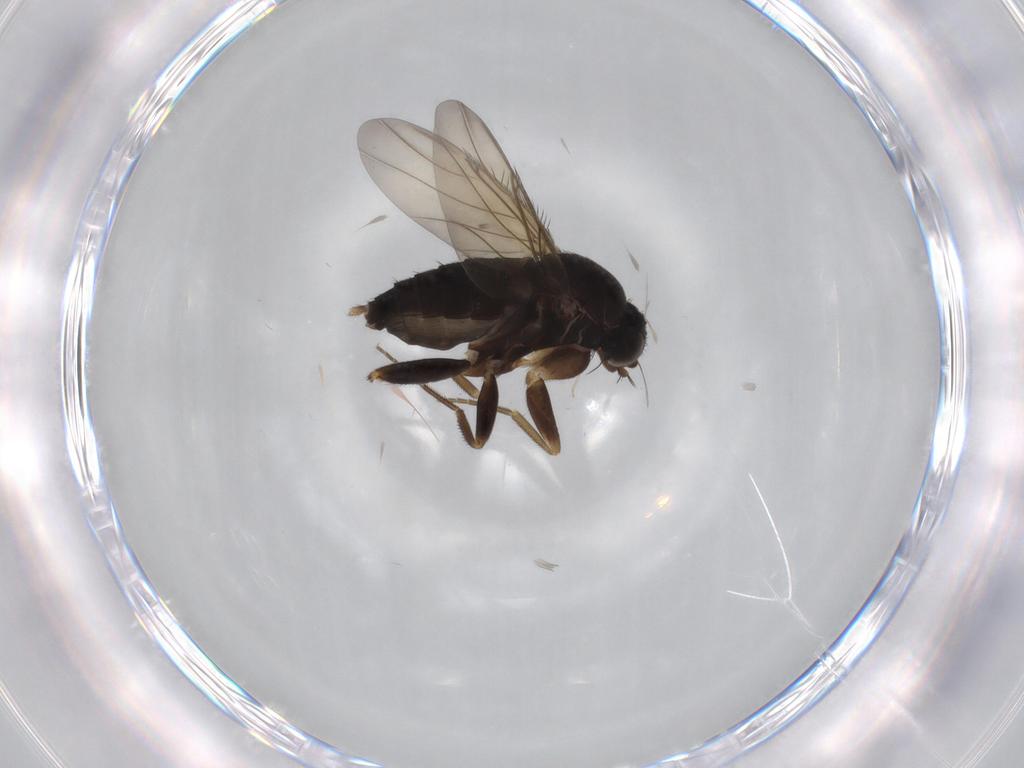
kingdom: Animalia
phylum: Arthropoda
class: Insecta
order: Diptera
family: Phoridae
